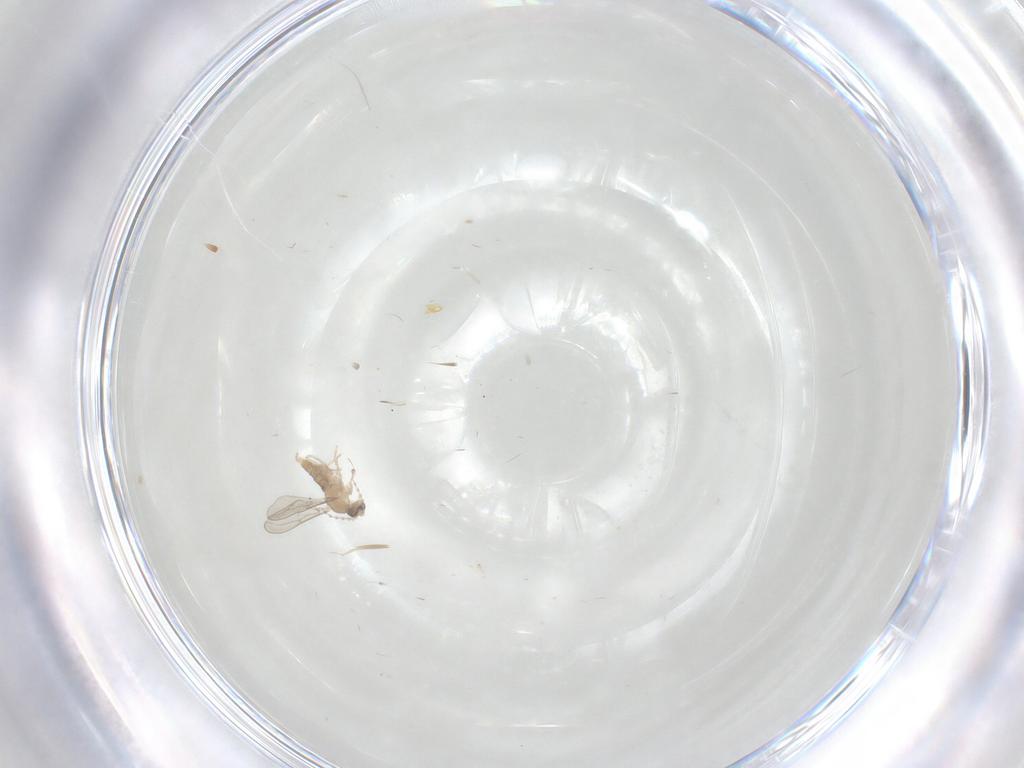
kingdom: Animalia
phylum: Arthropoda
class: Insecta
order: Diptera
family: Cecidomyiidae
